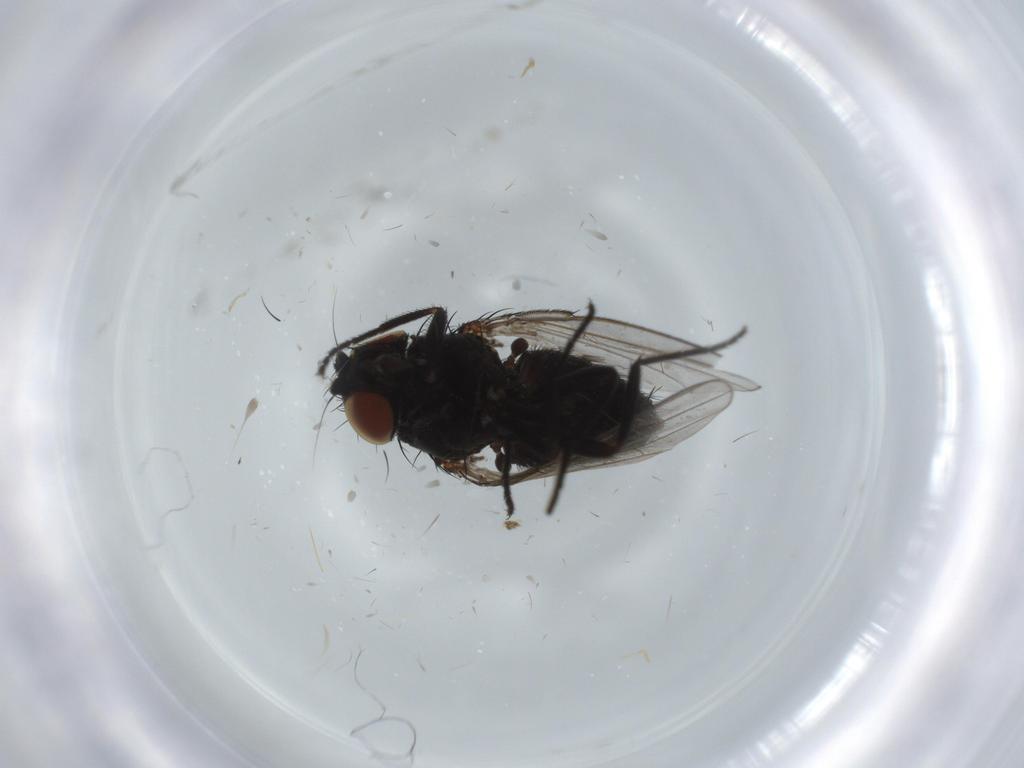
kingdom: Animalia
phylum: Arthropoda
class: Insecta
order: Diptera
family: Milichiidae
